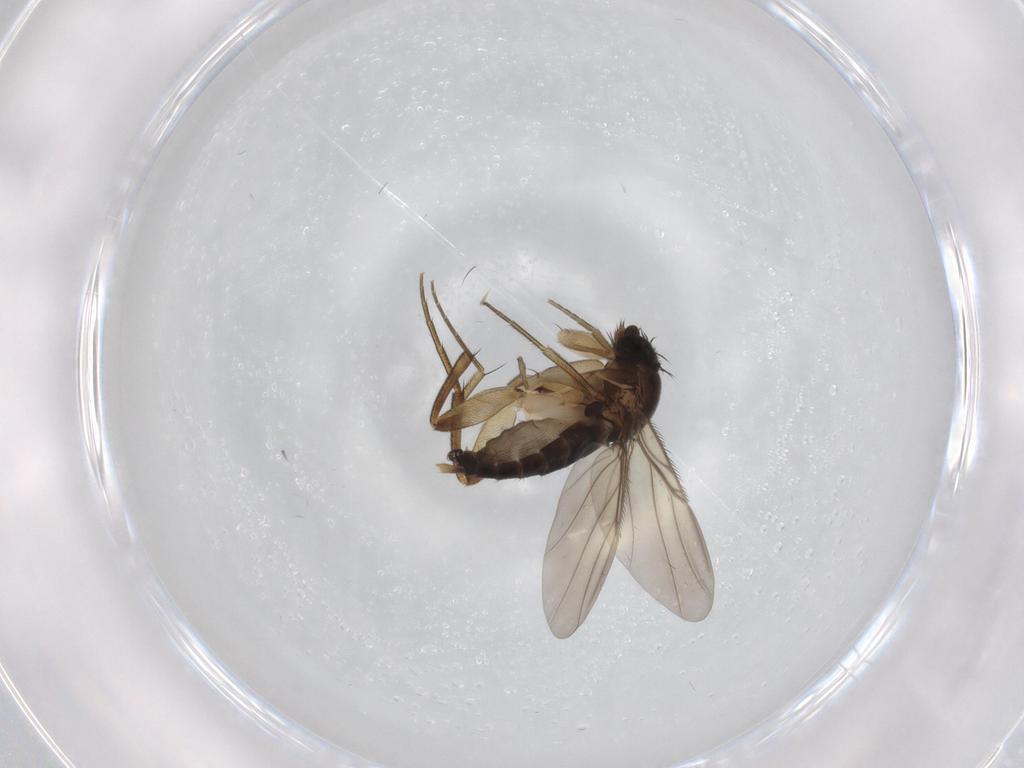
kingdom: Animalia
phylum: Arthropoda
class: Insecta
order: Diptera
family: Phoridae
